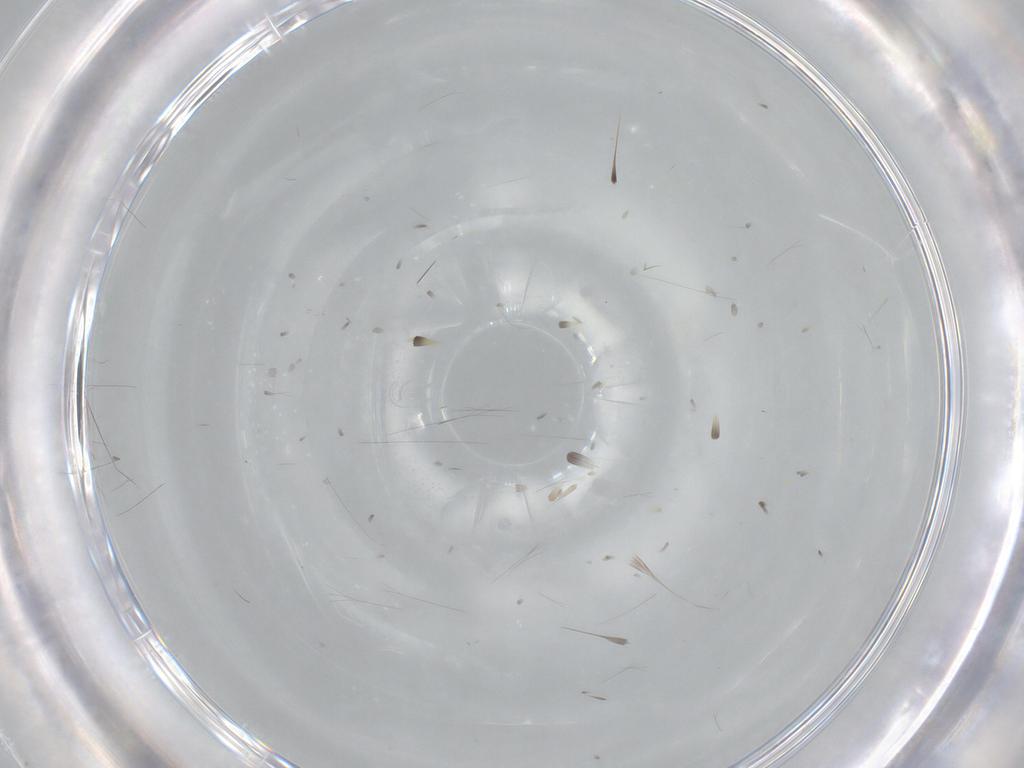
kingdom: Animalia
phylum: Arthropoda
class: Insecta
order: Blattodea
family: Ectobiidae
